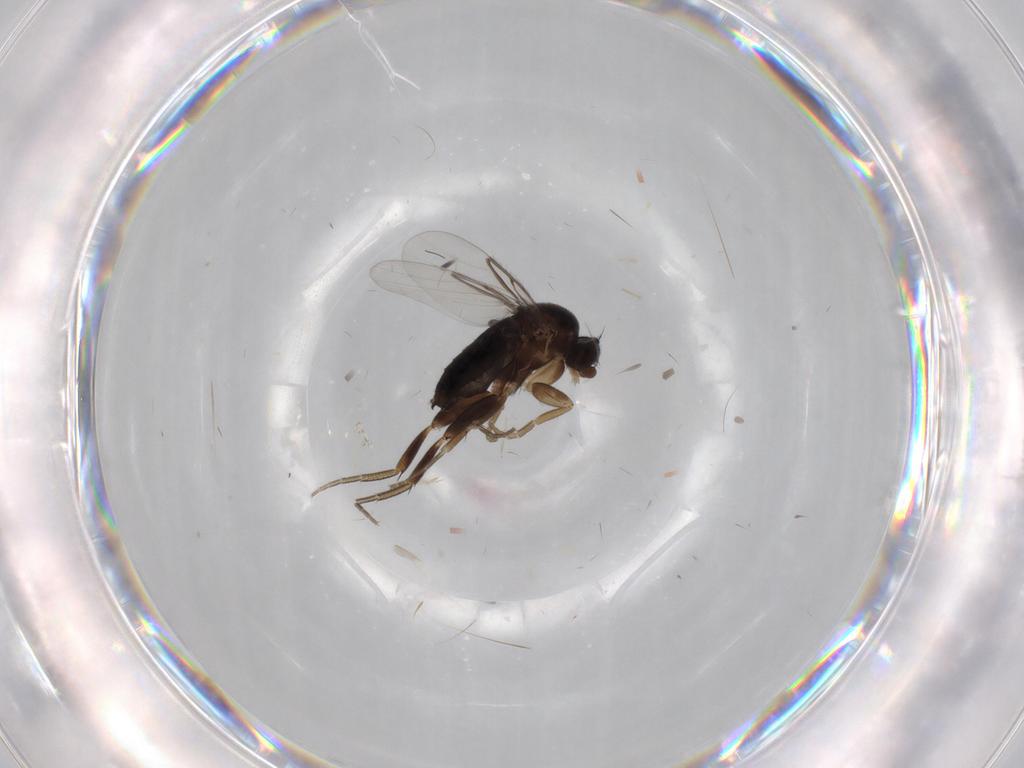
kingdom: Animalia
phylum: Arthropoda
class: Insecta
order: Diptera
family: Phoridae
